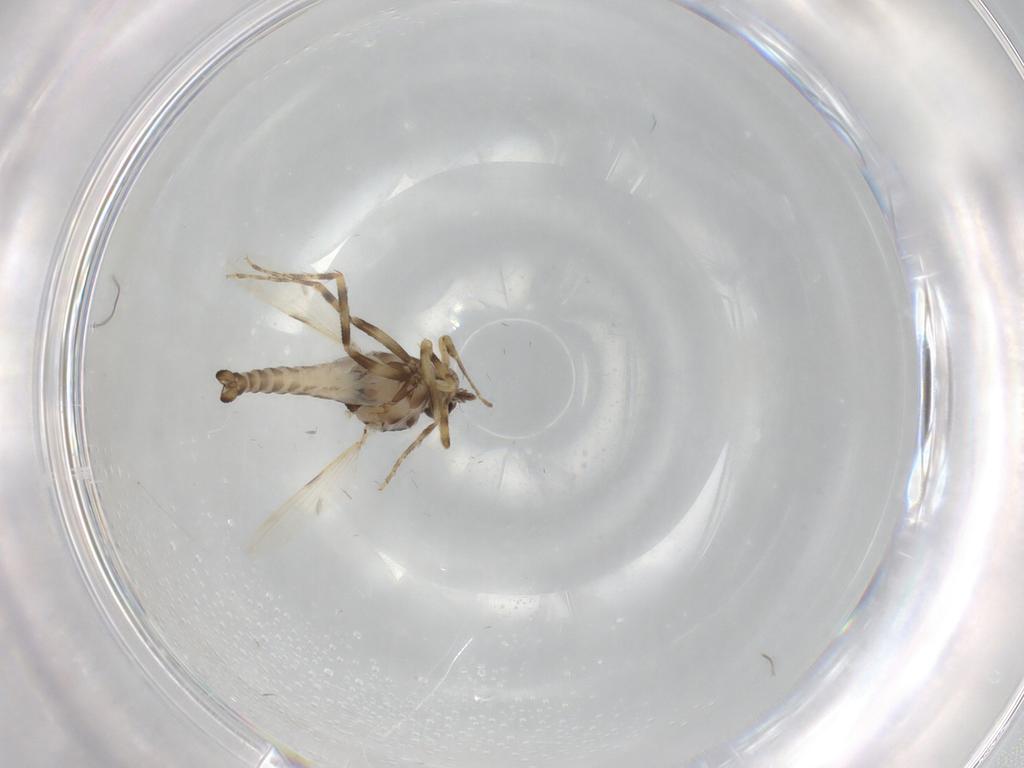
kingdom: Animalia
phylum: Arthropoda
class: Insecta
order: Diptera
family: Ceratopogonidae
